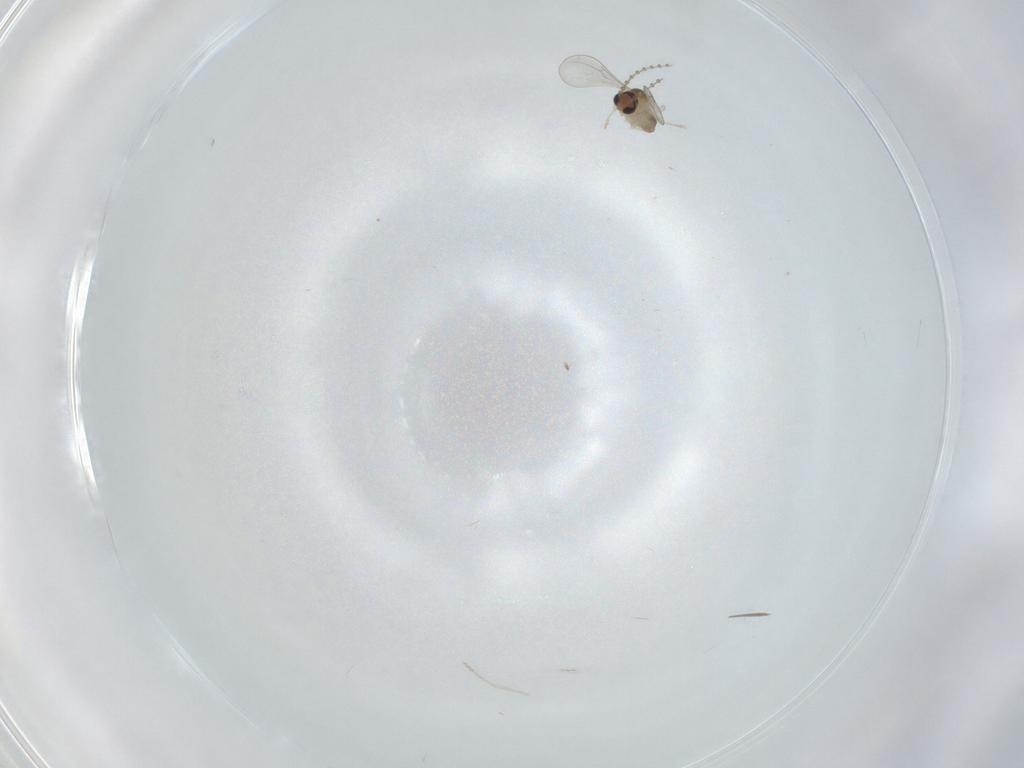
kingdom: Animalia
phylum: Arthropoda
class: Insecta
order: Diptera
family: Cecidomyiidae
